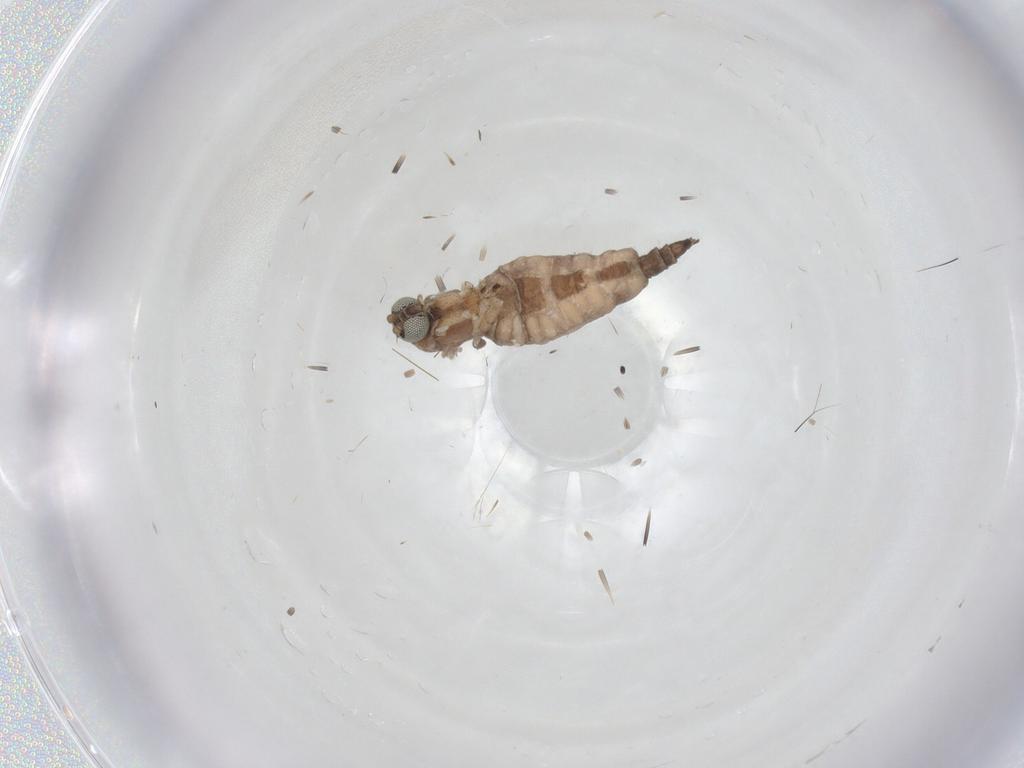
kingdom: Animalia
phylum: Arthropoda
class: Insecta
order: Diptera
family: Sciaridae
